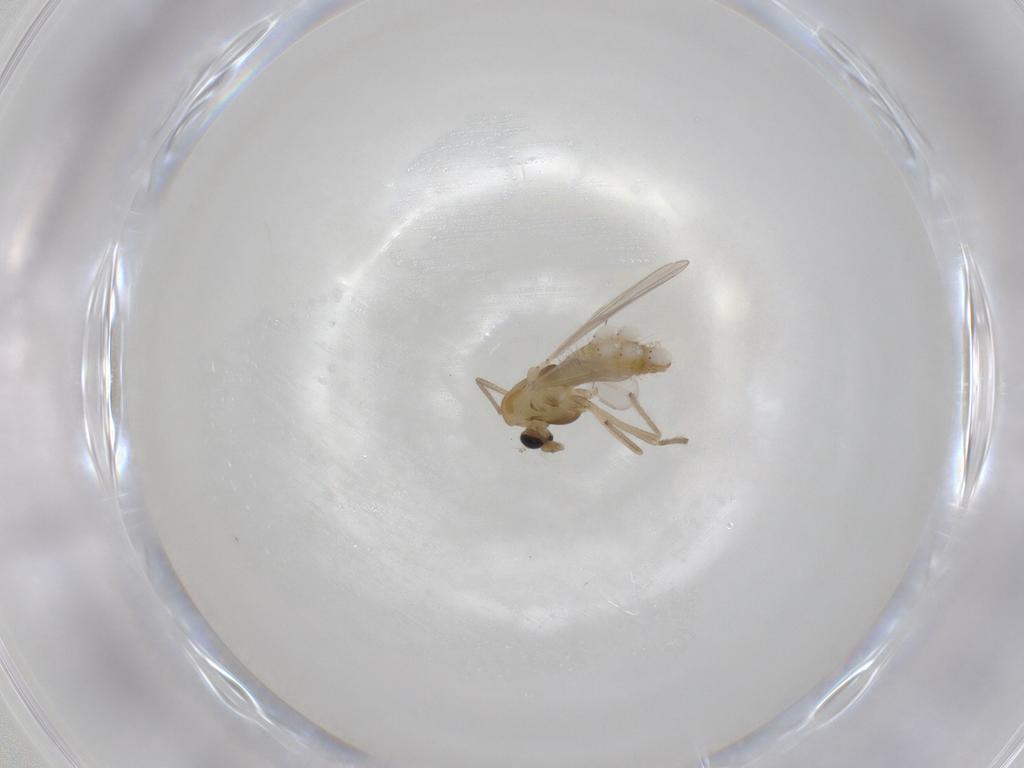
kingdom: Animalia
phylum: Arthropoda
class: Insecta
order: Diptera
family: Chironomidae
